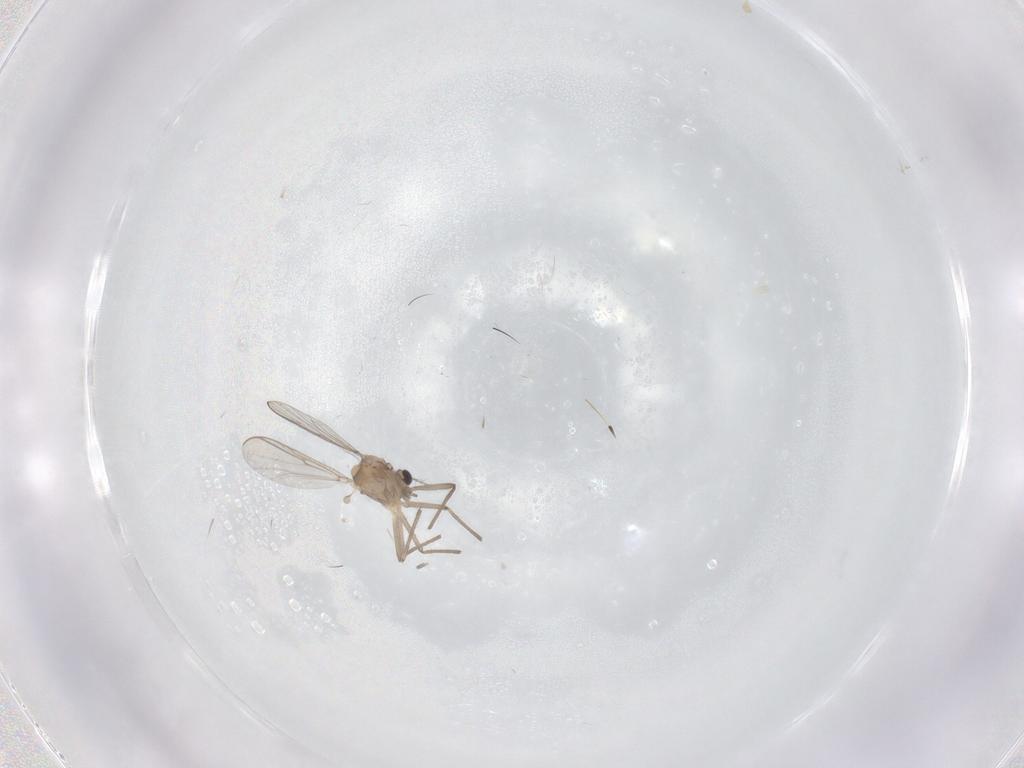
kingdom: Animalia
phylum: Arthropoda
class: Insecta
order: Diptera
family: Chironomidae
